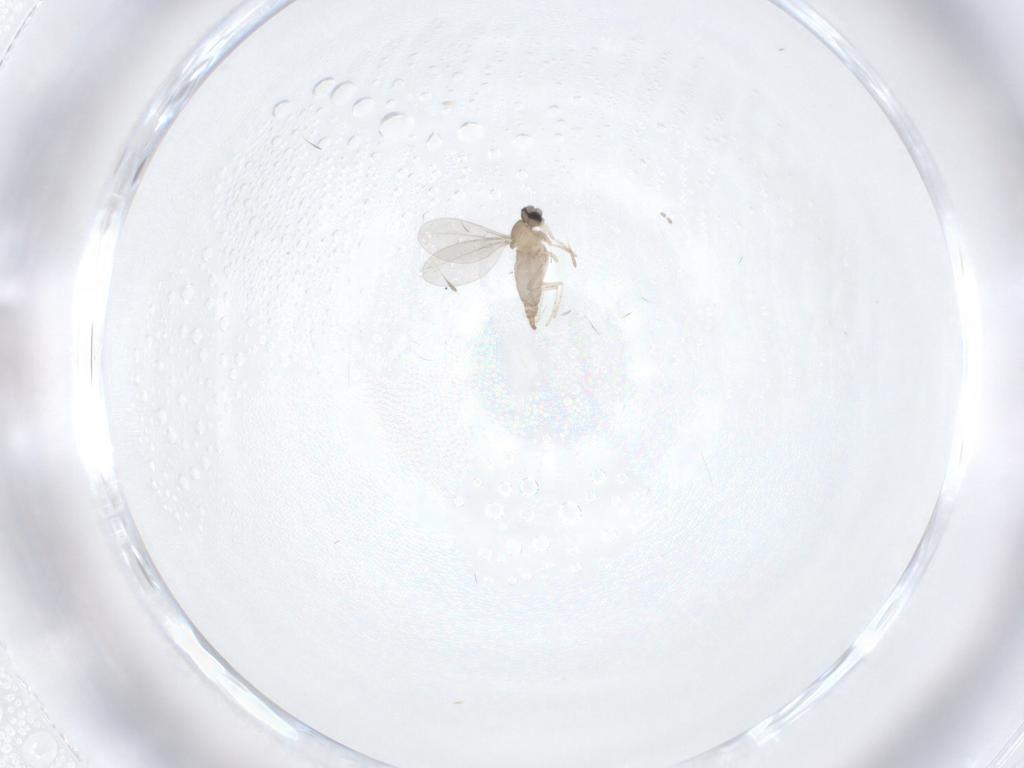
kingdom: Animalia
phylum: Arthropoda
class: Insecta
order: Diptera
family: Cecidomyiidae
